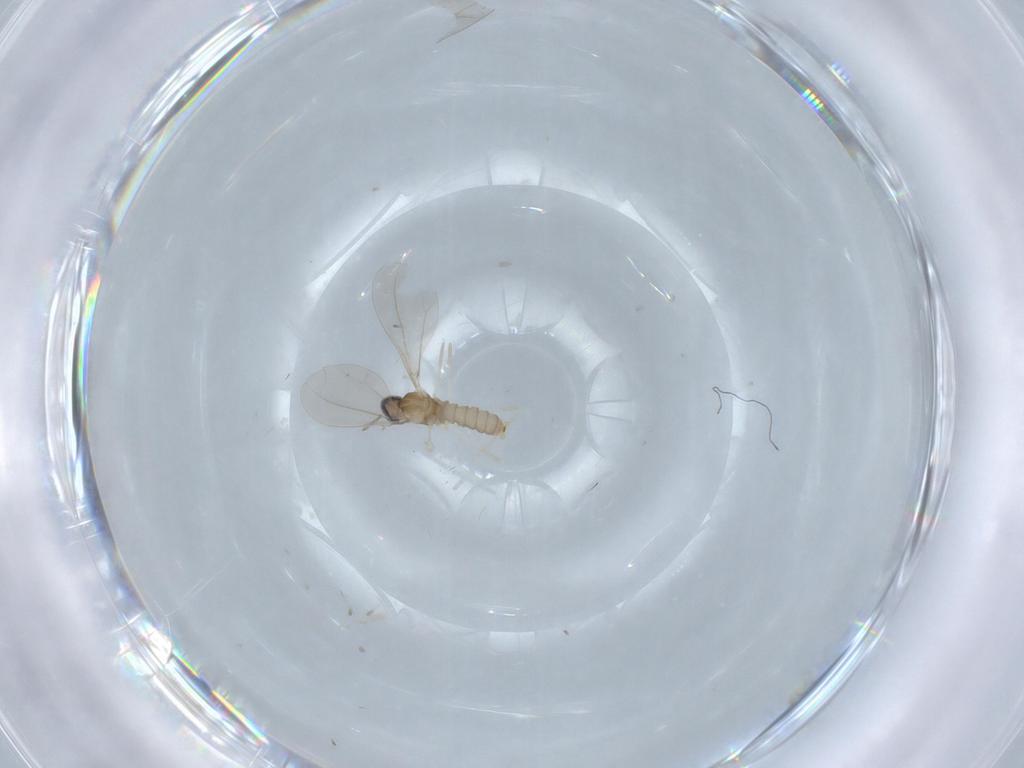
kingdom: Animalia
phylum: Arthropoda
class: Insecta
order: Diptera
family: Cecidomyiidae
